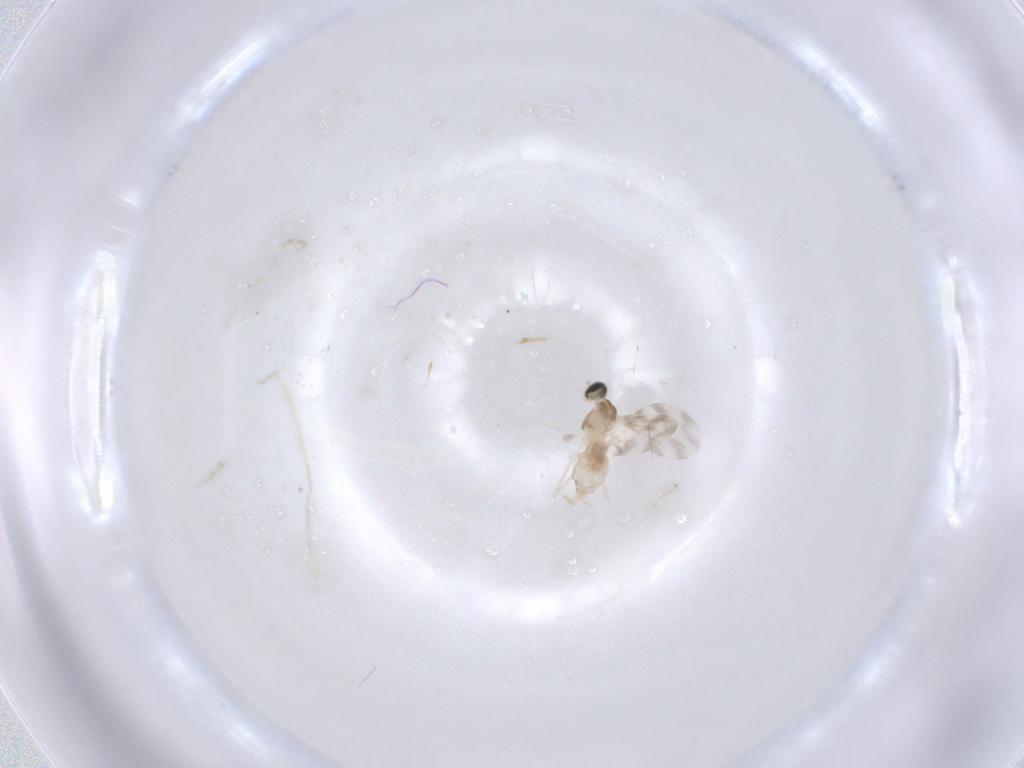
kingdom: Animalia
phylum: Arthropoda
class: Insecta
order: Diptera
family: Cecidomyiidae
